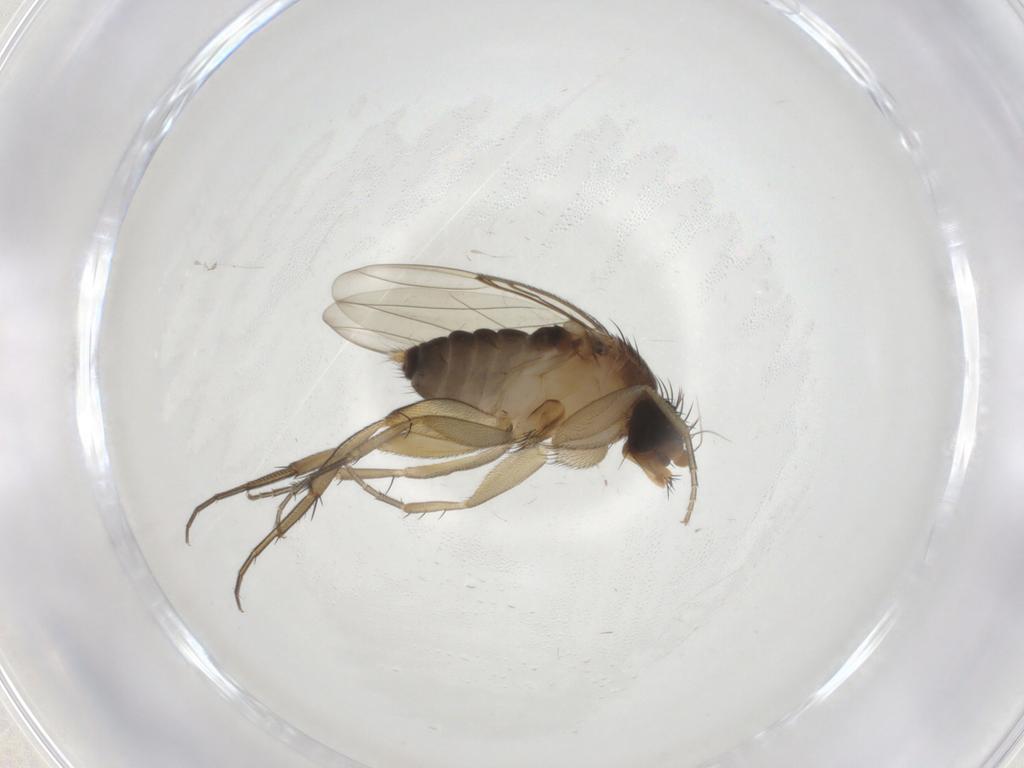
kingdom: Animalia
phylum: Arthropoda
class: Insecta
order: Diptera
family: Phoridae
